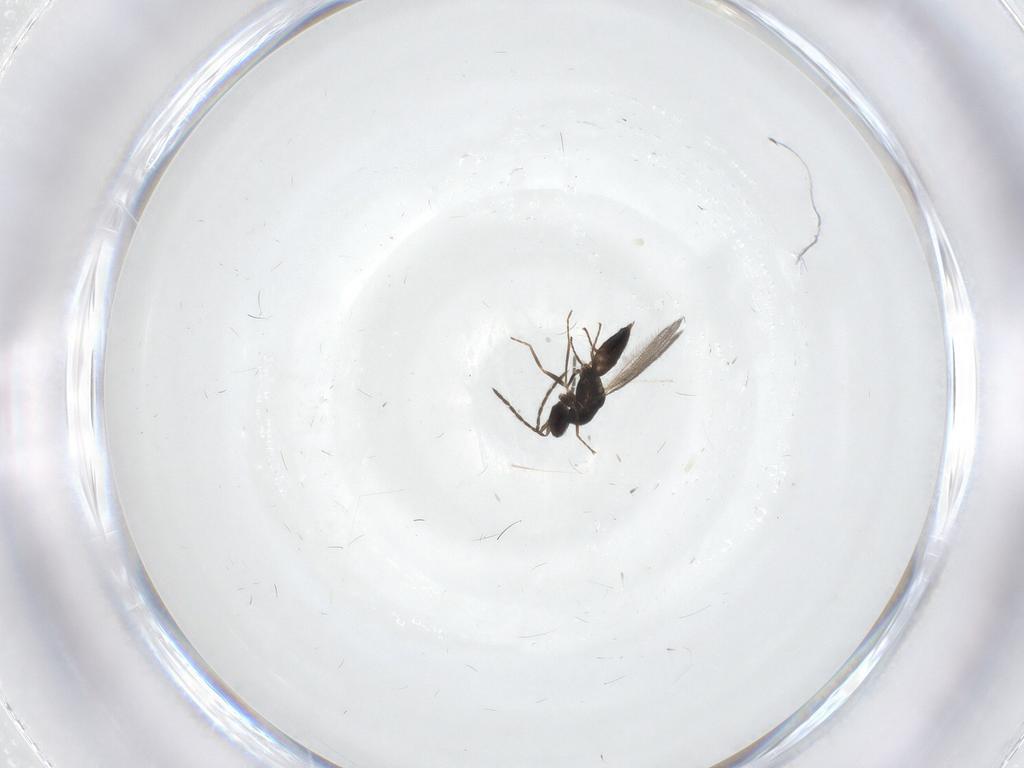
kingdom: Animalia
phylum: Arthropoda
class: Insecta
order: Hymenoptera
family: Eulophidae
